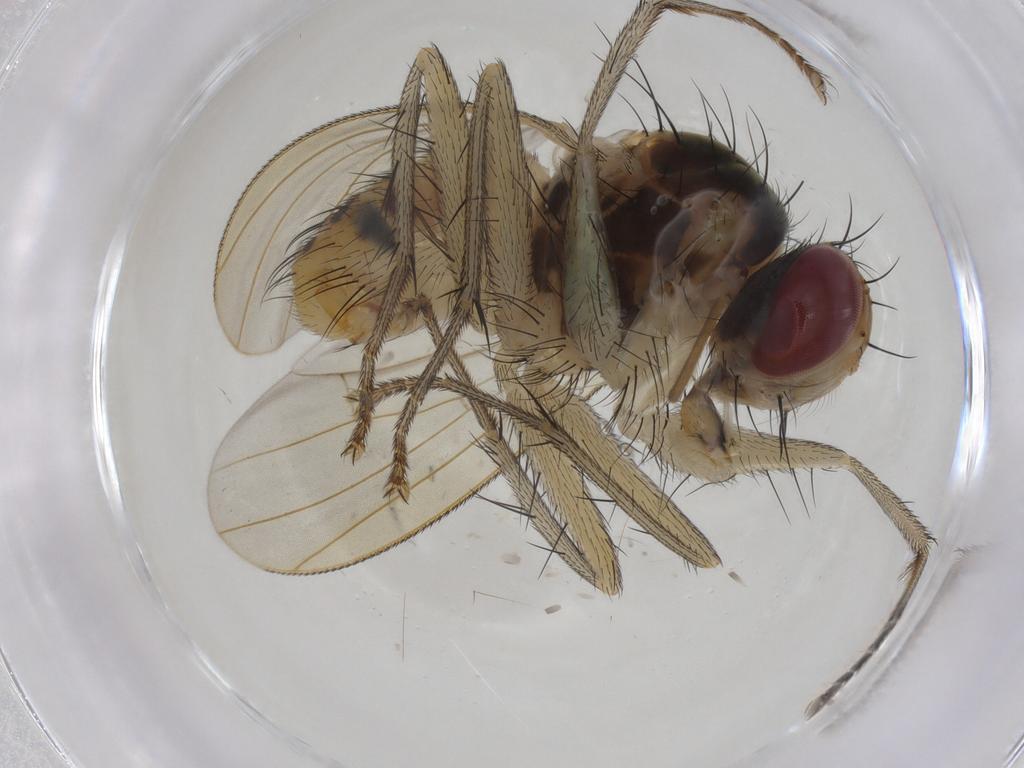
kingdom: Animalia
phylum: Arthropoda
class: Insecta
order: Diptera
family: Muscidae
